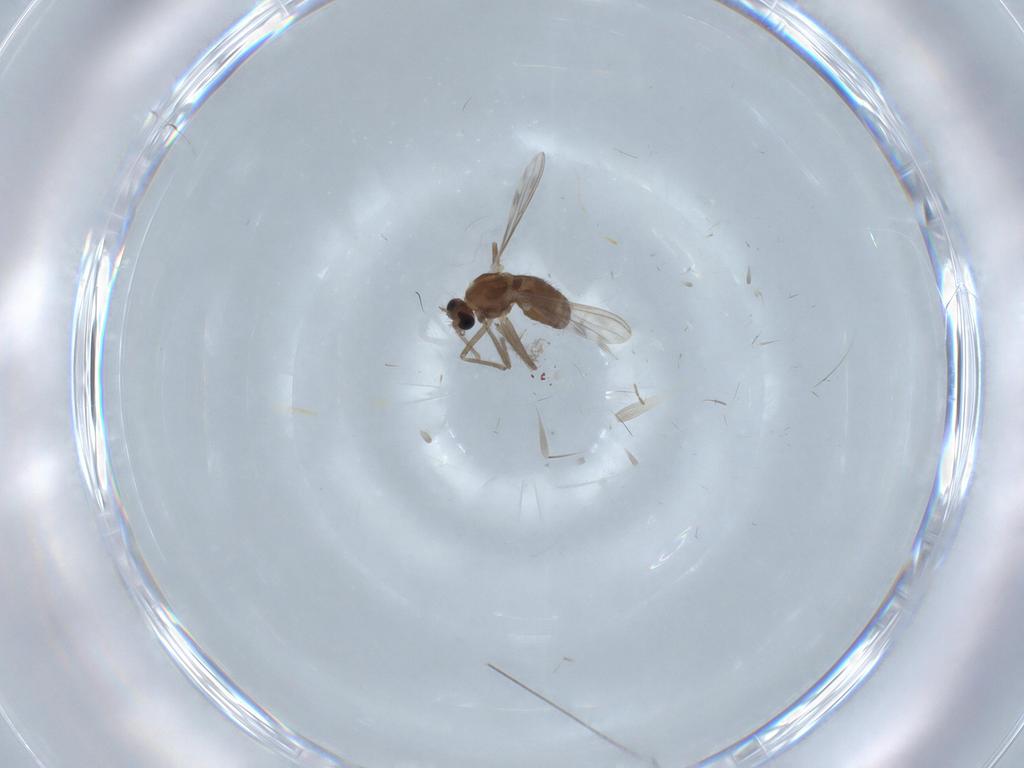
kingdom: Animalia
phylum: Arthropoda
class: Insecta
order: Diptera
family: Chironomidae
